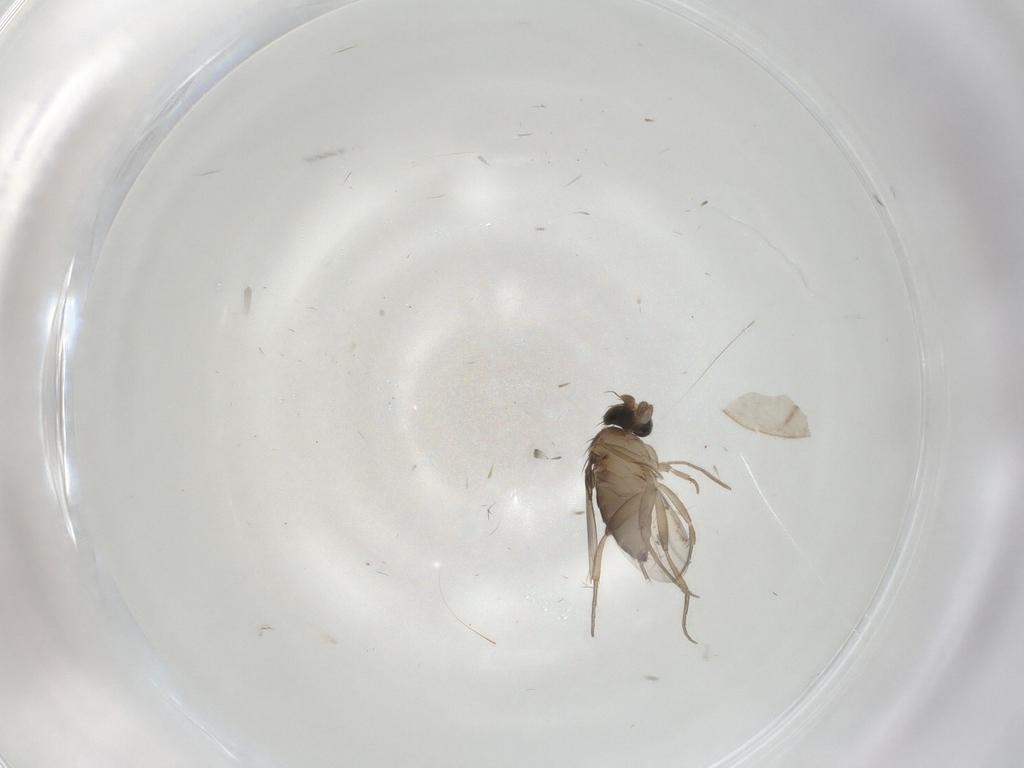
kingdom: Animalia
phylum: Arthropoda
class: Insecta
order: Diptera
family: Phoridae
